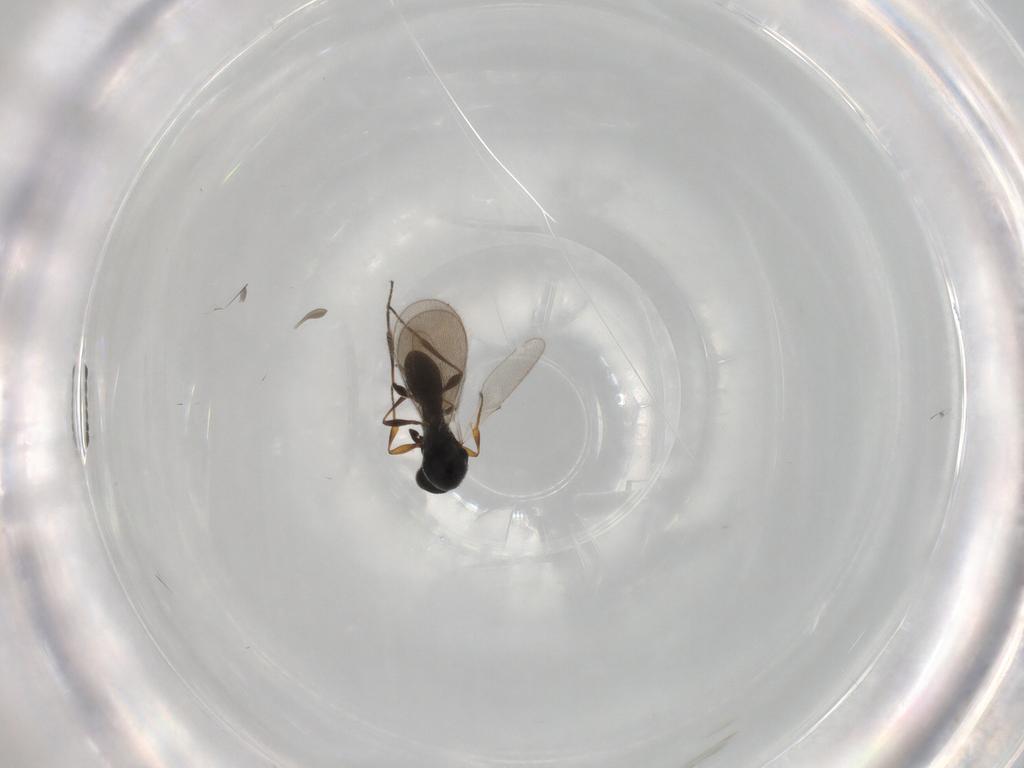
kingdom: Animalia
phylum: Arthropoda
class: Insecta
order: Hymenoptera
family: Platygastridae
